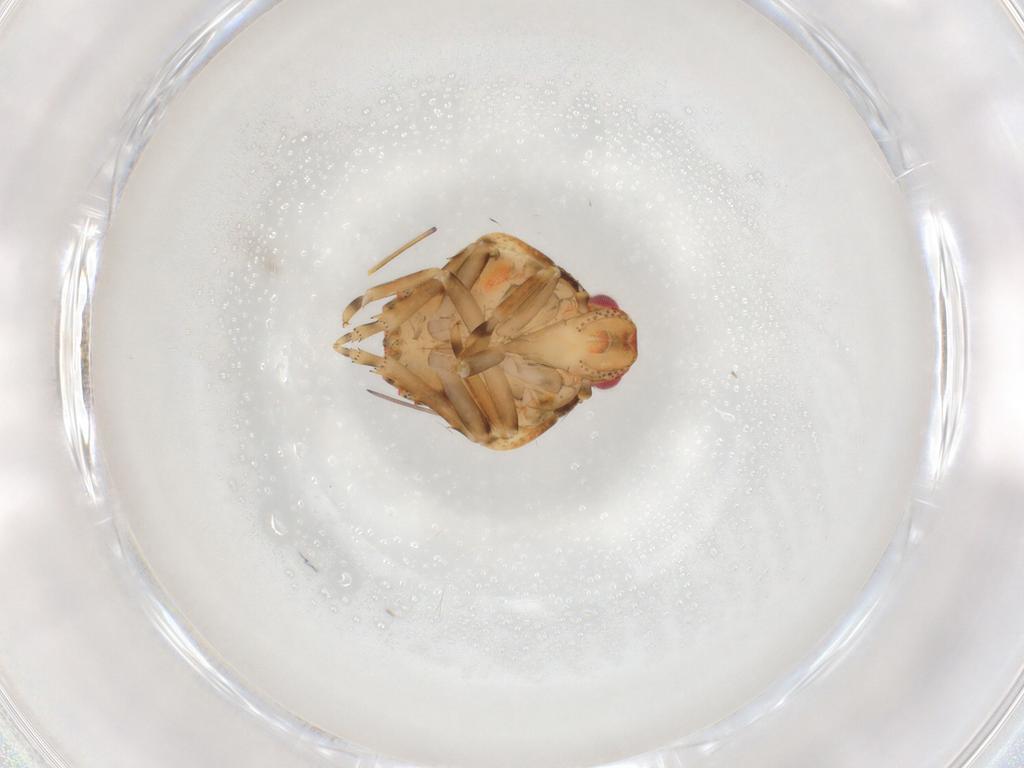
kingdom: Animalia
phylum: Arthropoda
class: Insecta
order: Hemiptera
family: Flatidae
